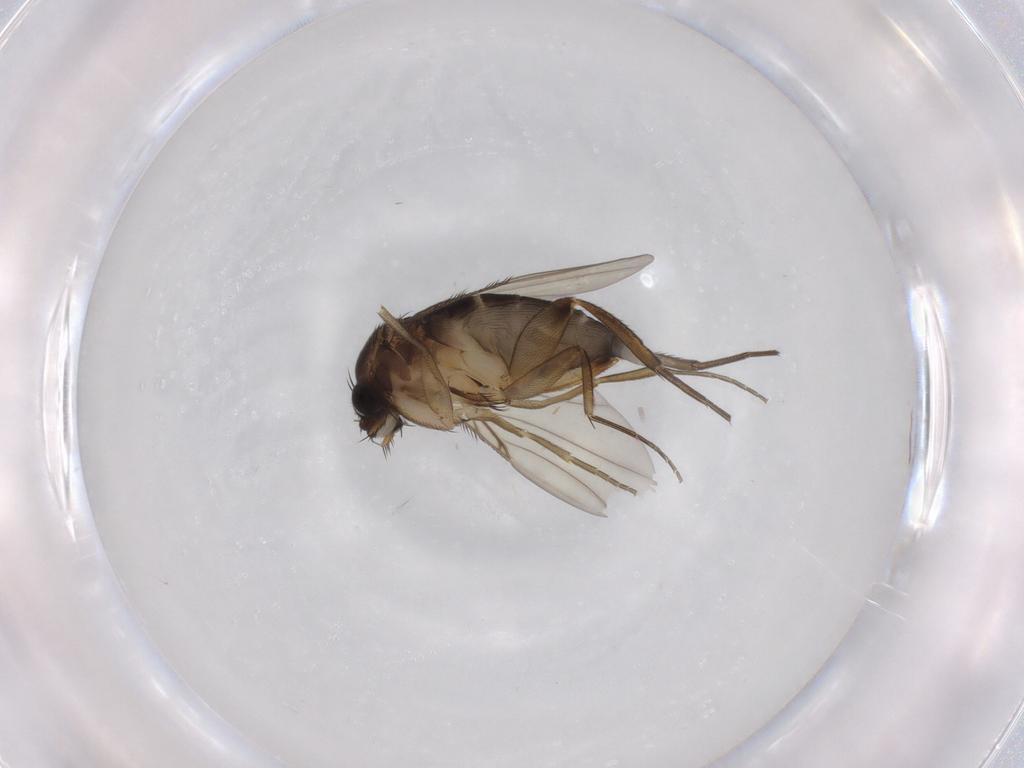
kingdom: Animalia
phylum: Arthropoda
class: Insecta
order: Diptera
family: Phoridae
